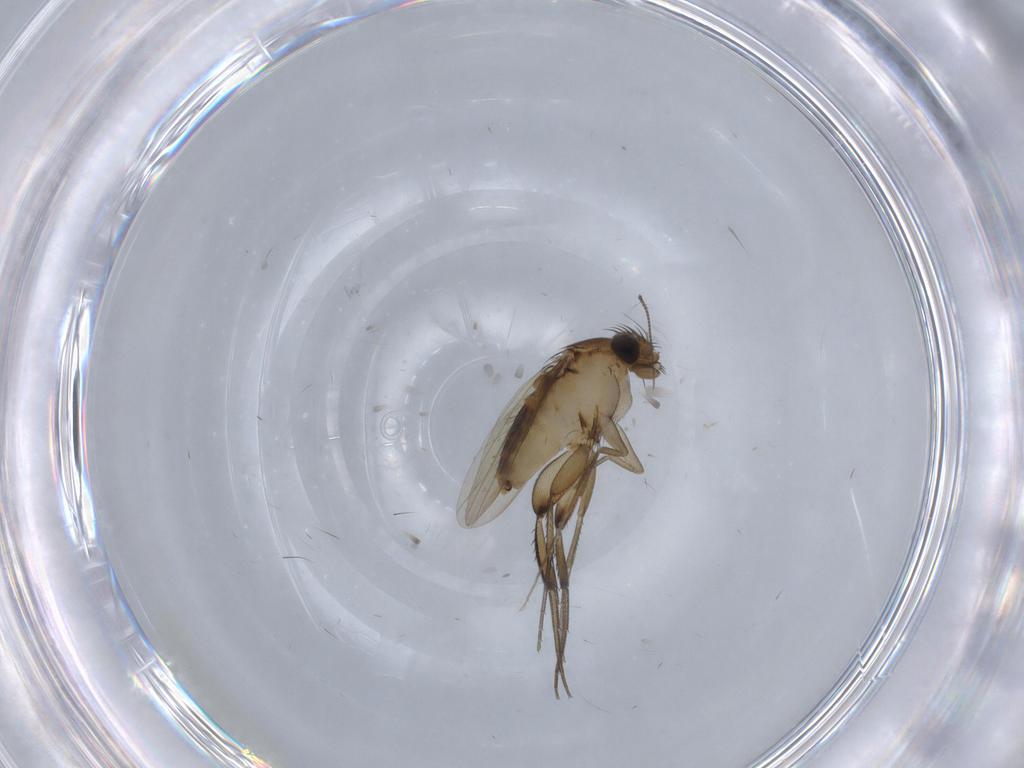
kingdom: Animalia
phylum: Arthropoda
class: Insecta
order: Diptera
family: Phoridae
